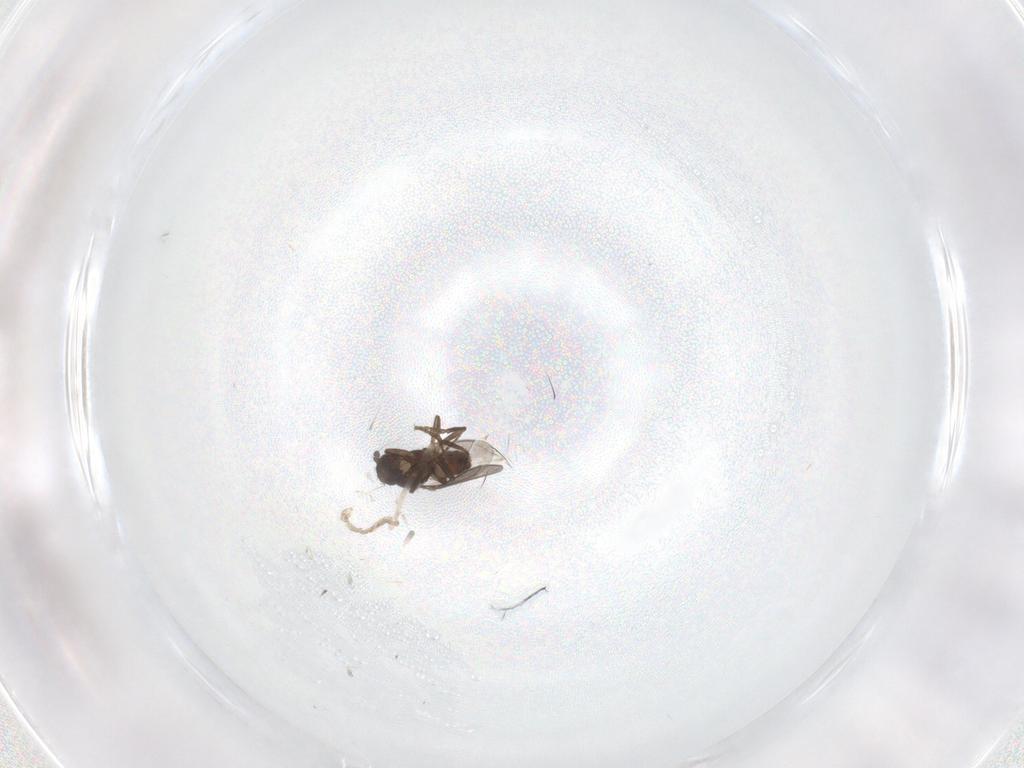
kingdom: Animalia
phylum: Arthropoda
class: Insecta
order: Diptera
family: Sphaeroceridae
